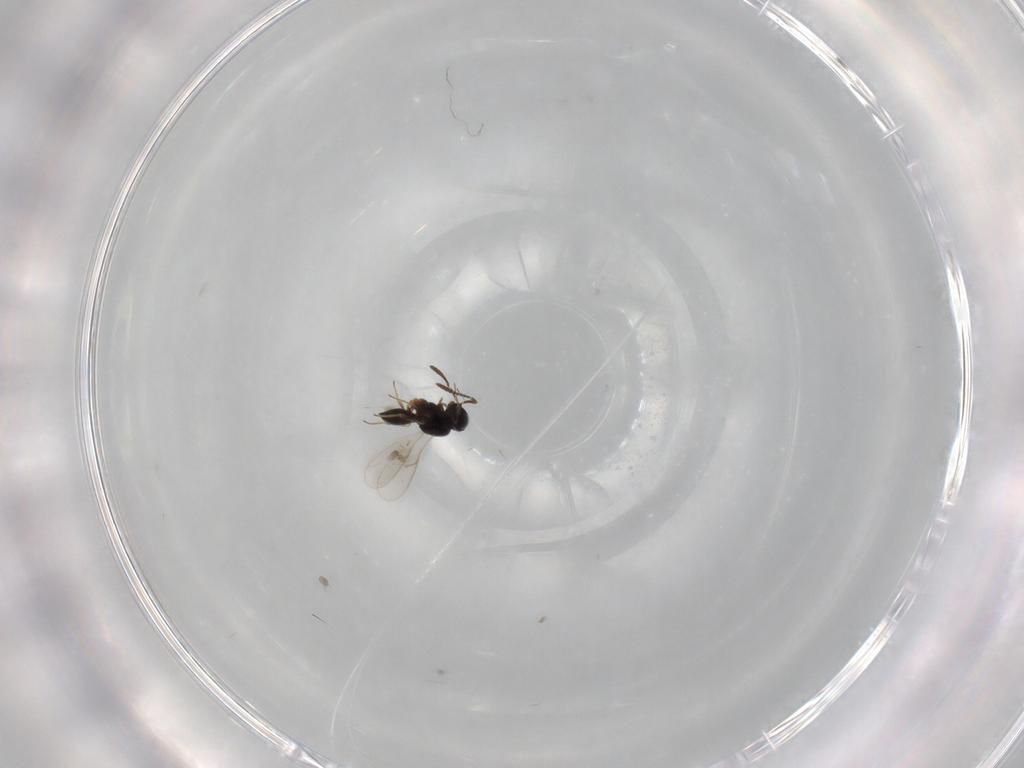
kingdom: Animalia
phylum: Arthropoda
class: Insecta
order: Hymenoptera
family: Scelionidae
